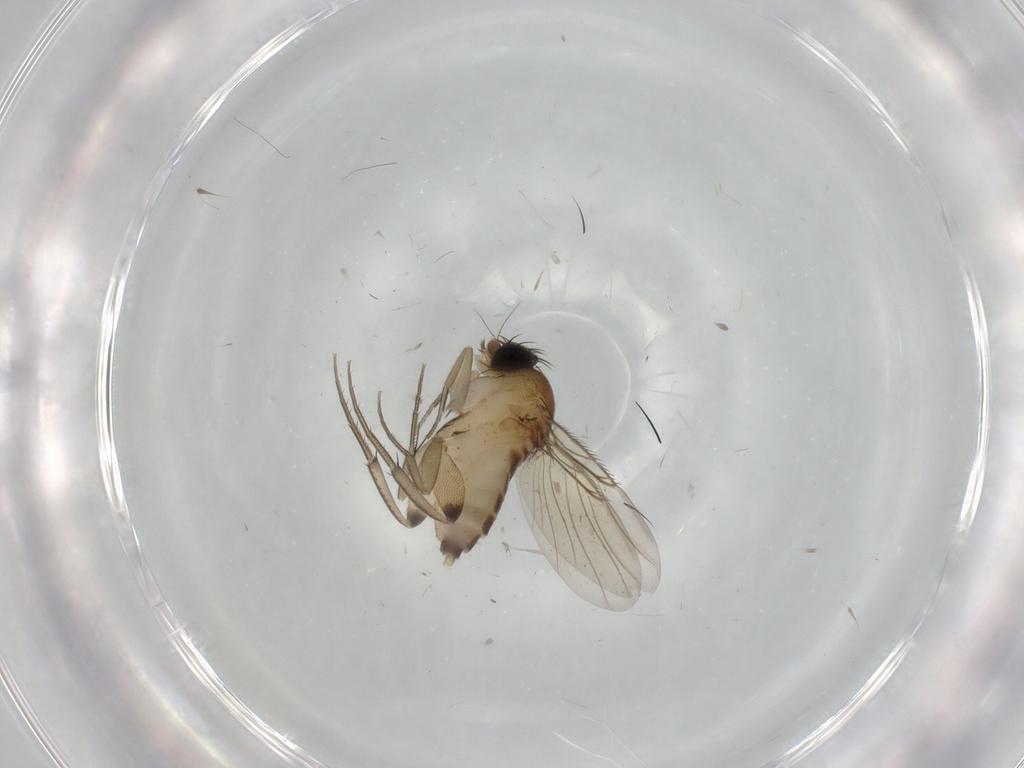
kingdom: Animalia
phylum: Arthropoda
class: Insecta
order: Diptera
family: Phoridae
